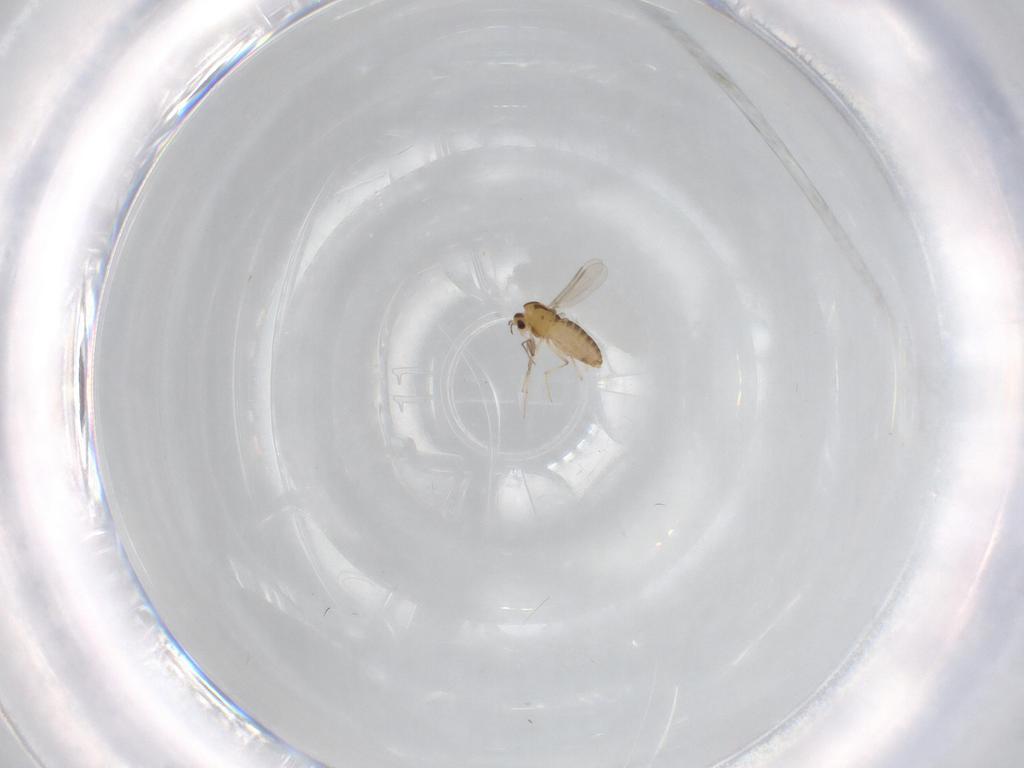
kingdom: Animalia
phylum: Arthropoda
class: Insecta
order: Diptera
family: Chironomidae
